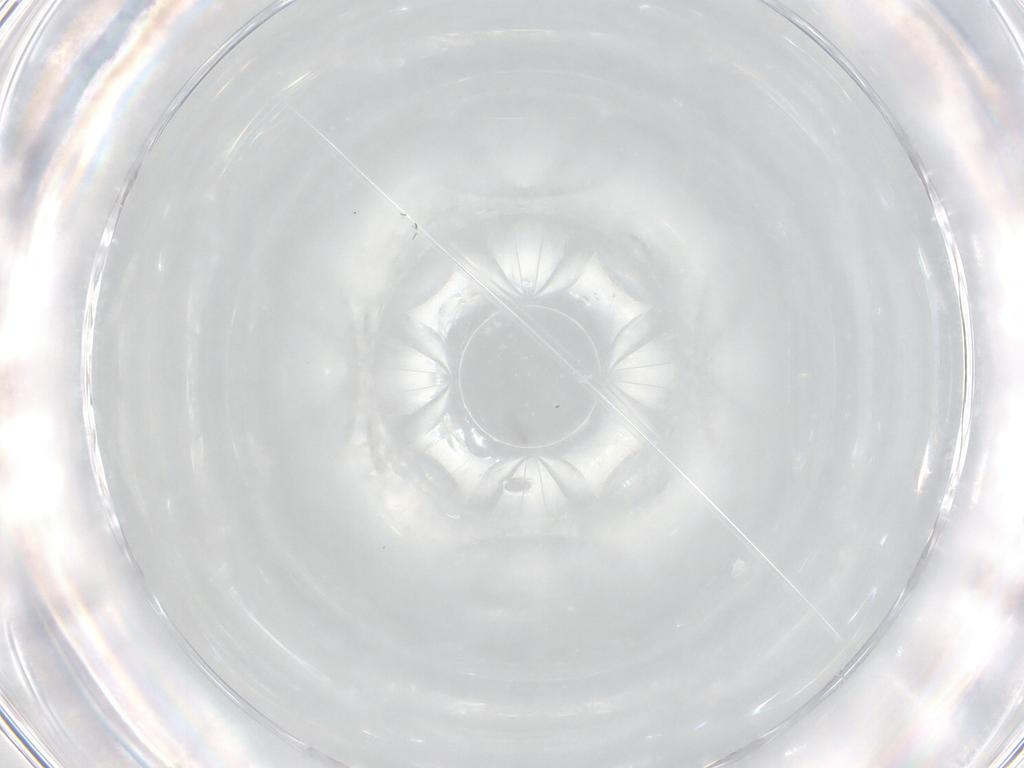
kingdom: Animalia
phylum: Arthropoda
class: Insecta
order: Diptera
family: Chironomidae
